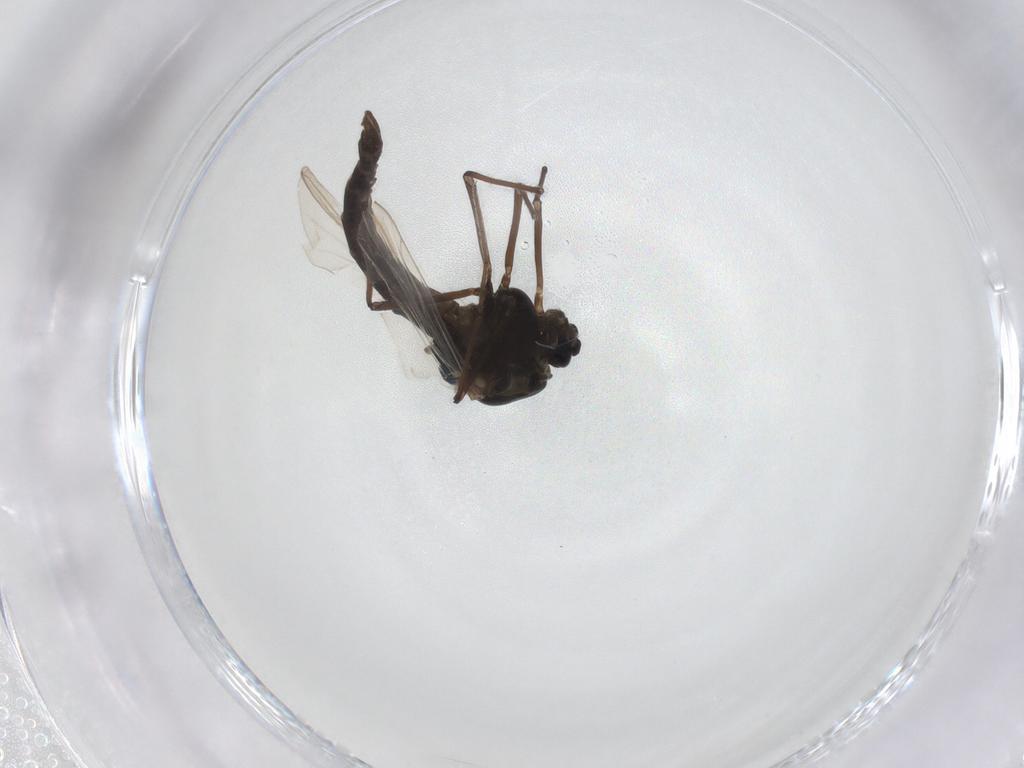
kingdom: Animalia
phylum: Arthropoda
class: Insecta
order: Diptera
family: Chironomidae
